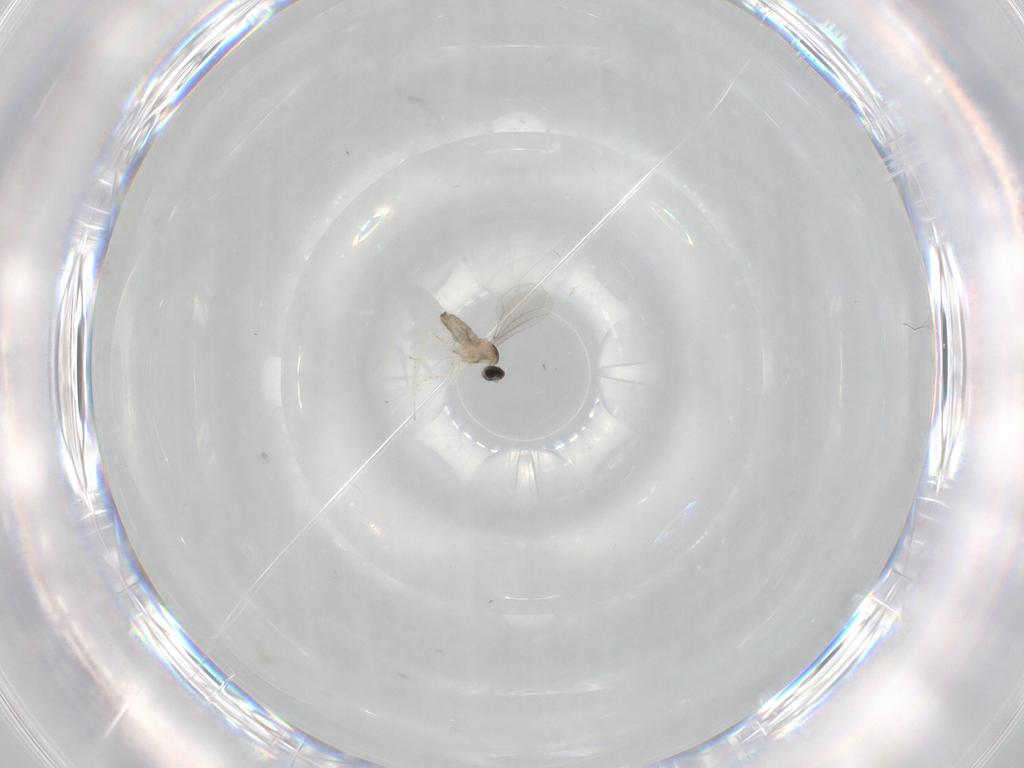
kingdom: Animalia
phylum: Arthropoda
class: Insecta
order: Diptera
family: Cecidomyiidae
